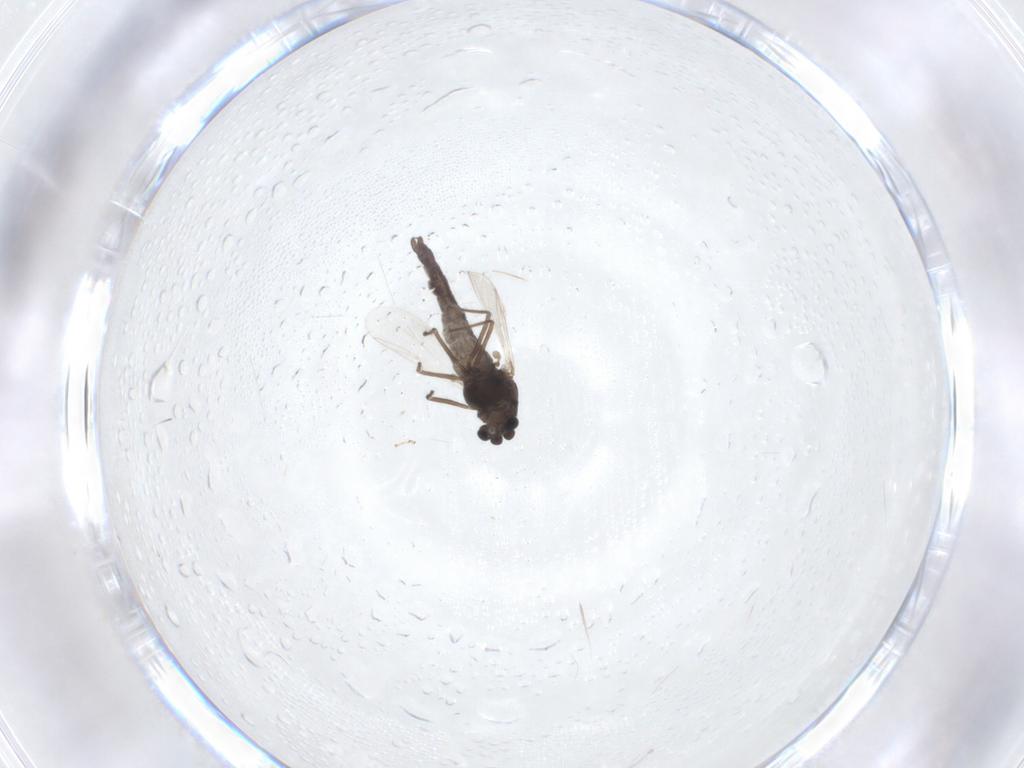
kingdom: Animalia
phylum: Arthropoda
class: Insecta
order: Diptera
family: Chironomidae
